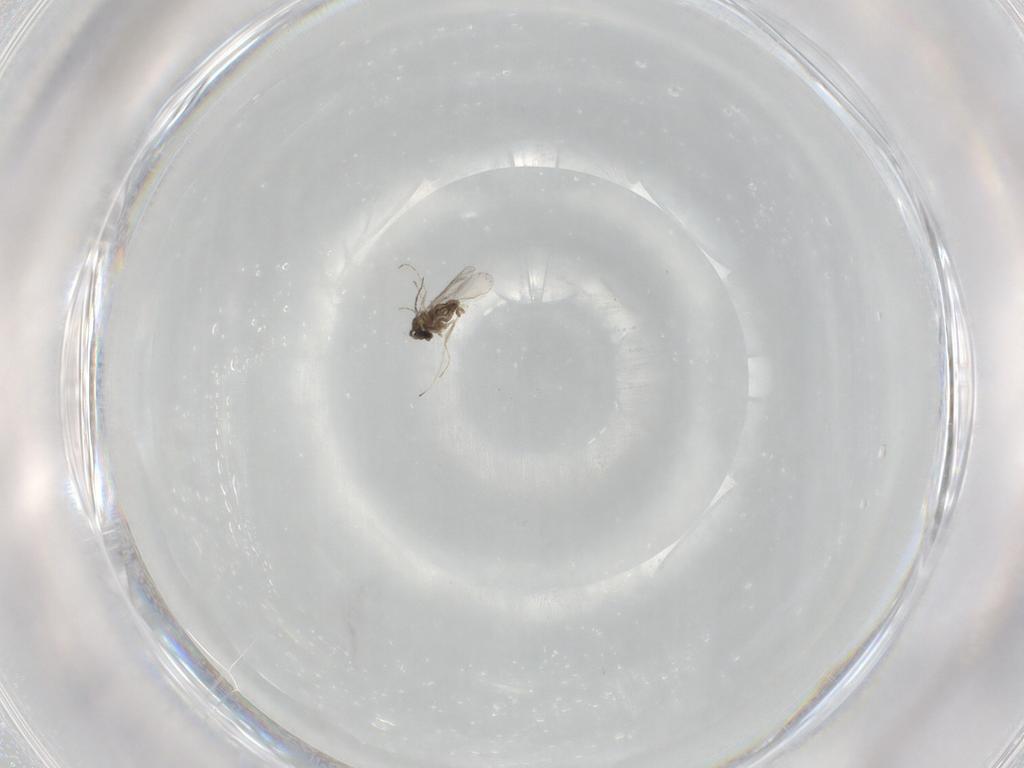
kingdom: Animalia
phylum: Arthropoda
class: Insecta
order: Diptera
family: Cecidomyiidae
